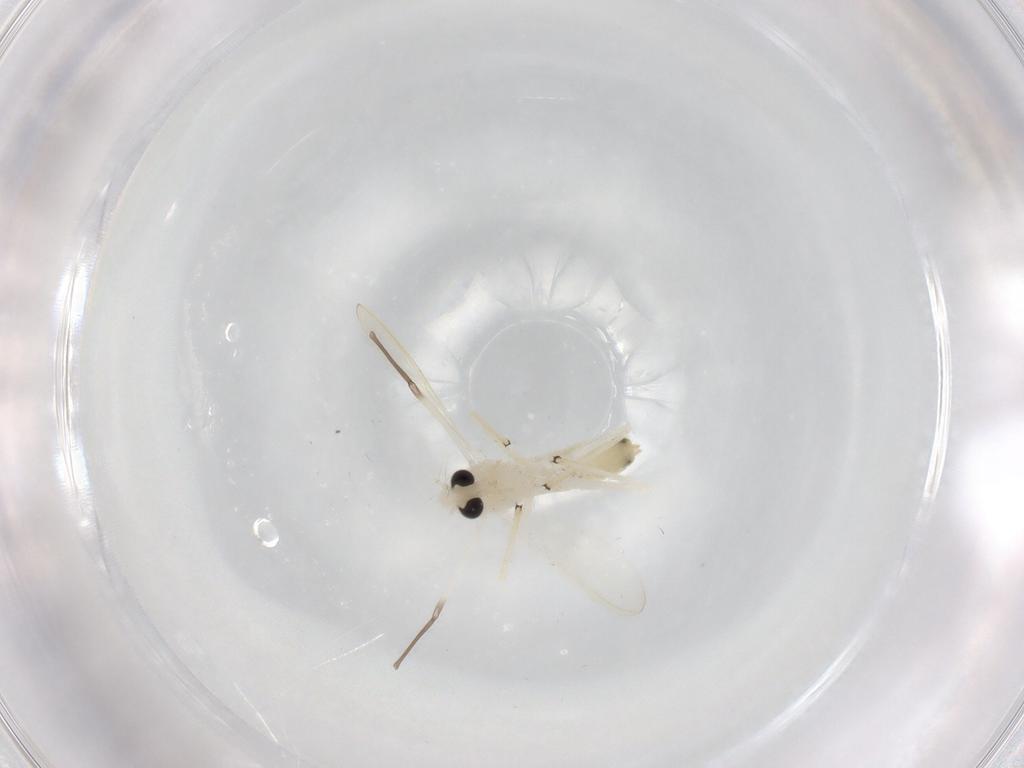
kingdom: Animalia
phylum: Arthropoda
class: Insecta
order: Diptera
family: Chironomidae
